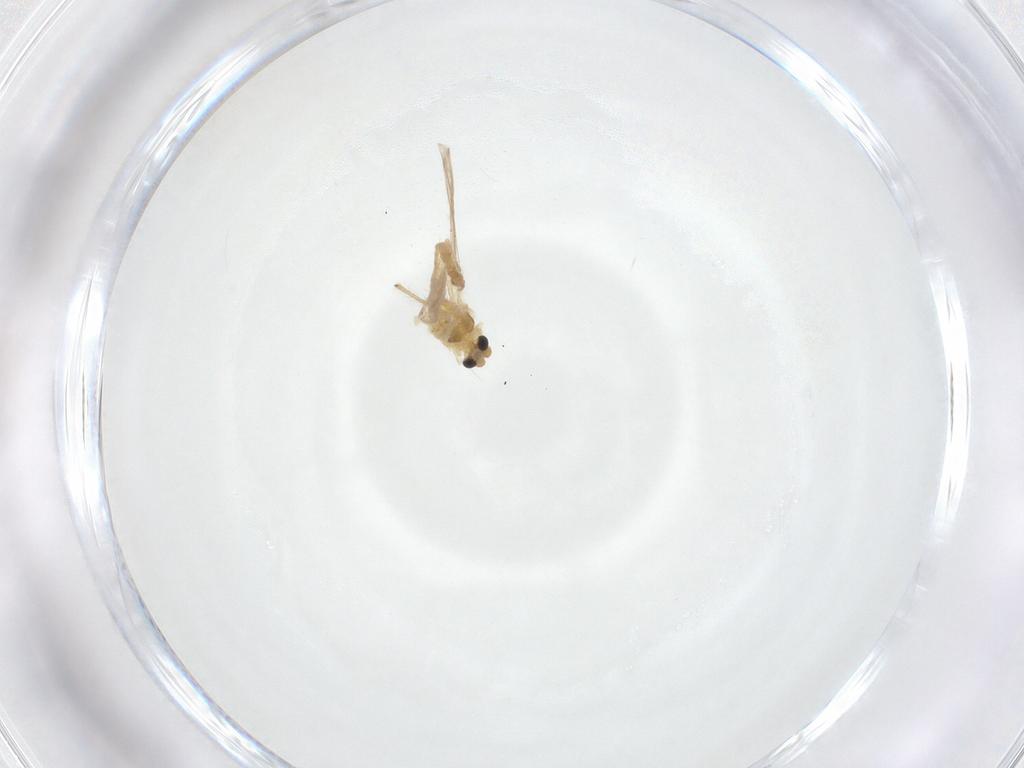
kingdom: Animalia
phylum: Arthropoda
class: Insecta
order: Diptera
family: Chironomidae
